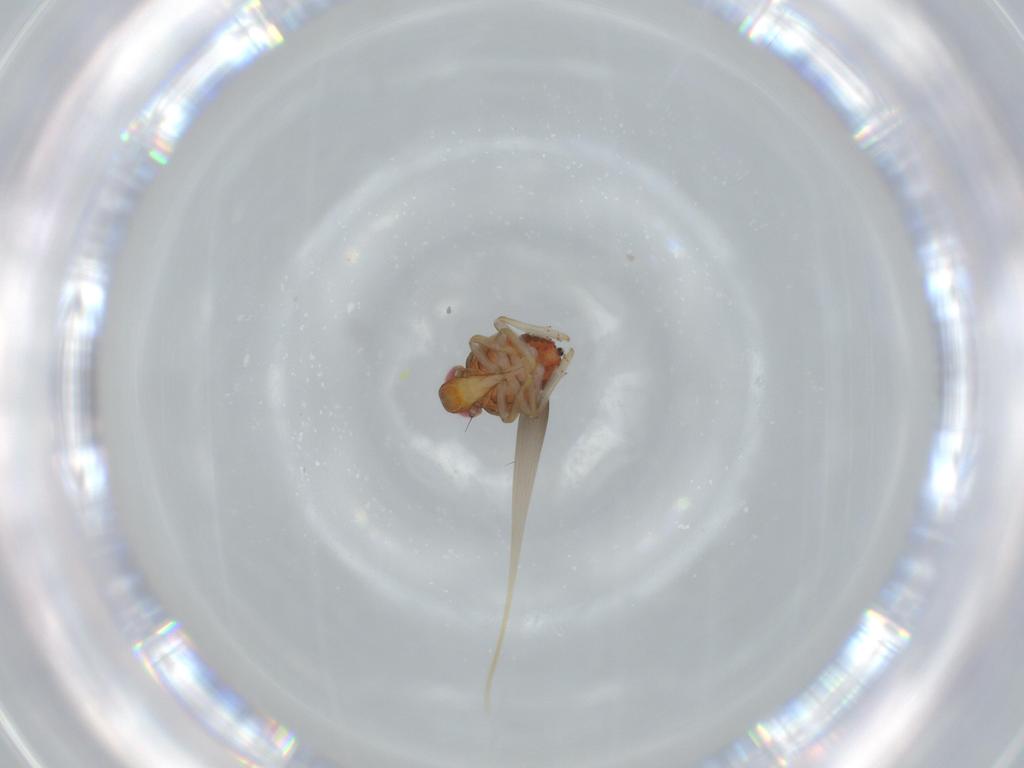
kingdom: Animalia
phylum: Arthropoda
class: Insecta
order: Hemiptera
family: Issidae
